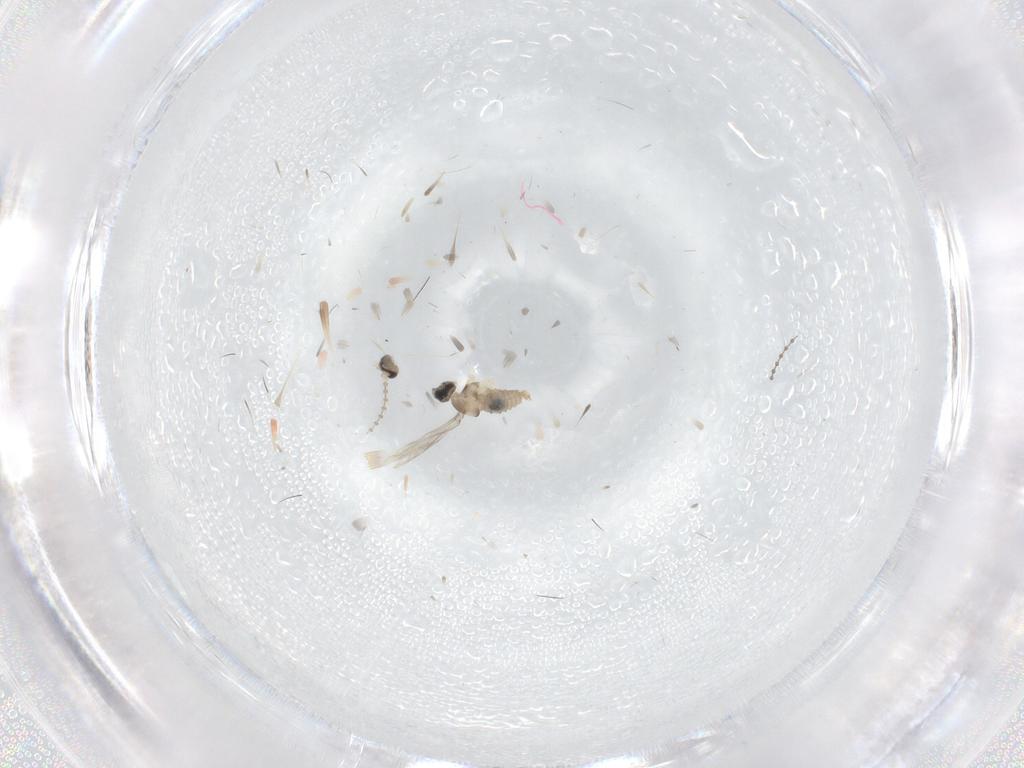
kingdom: Animalia
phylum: Arthropoda
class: Insecta
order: Diptera
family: Cecidomyiidae
